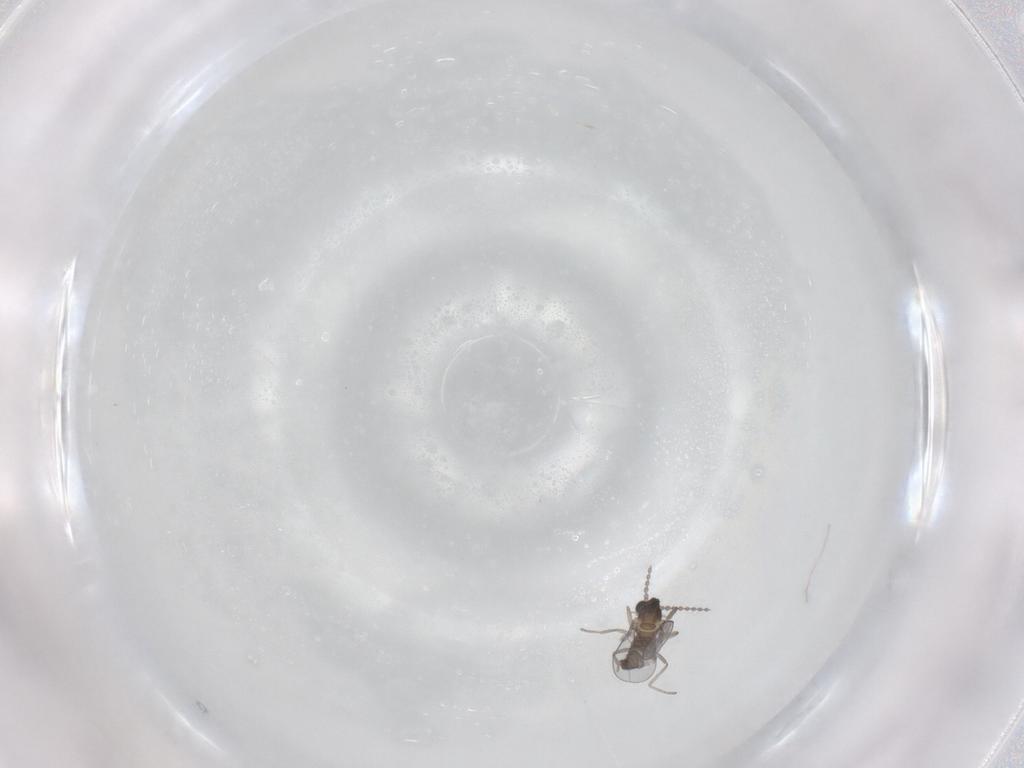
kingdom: Animalia
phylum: Arthropoda
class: Insecta
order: Diptera
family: Cecidomyiidae
